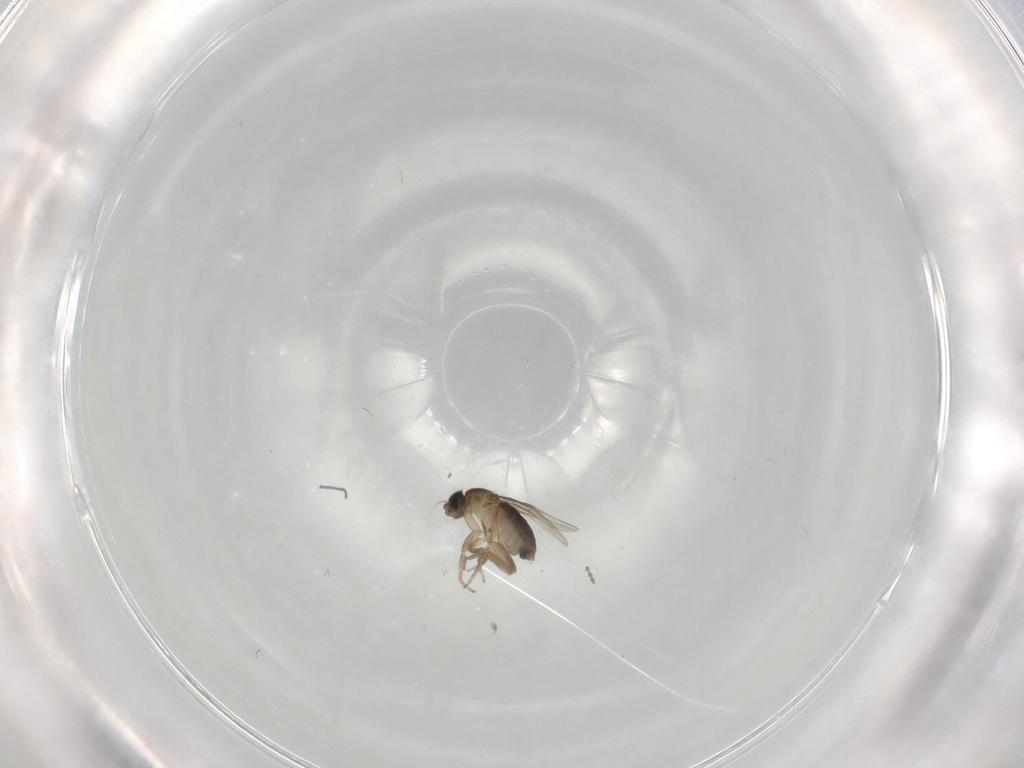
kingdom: Animalia
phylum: Arthropoda
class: Insecta
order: Diptera
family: Phoridae
